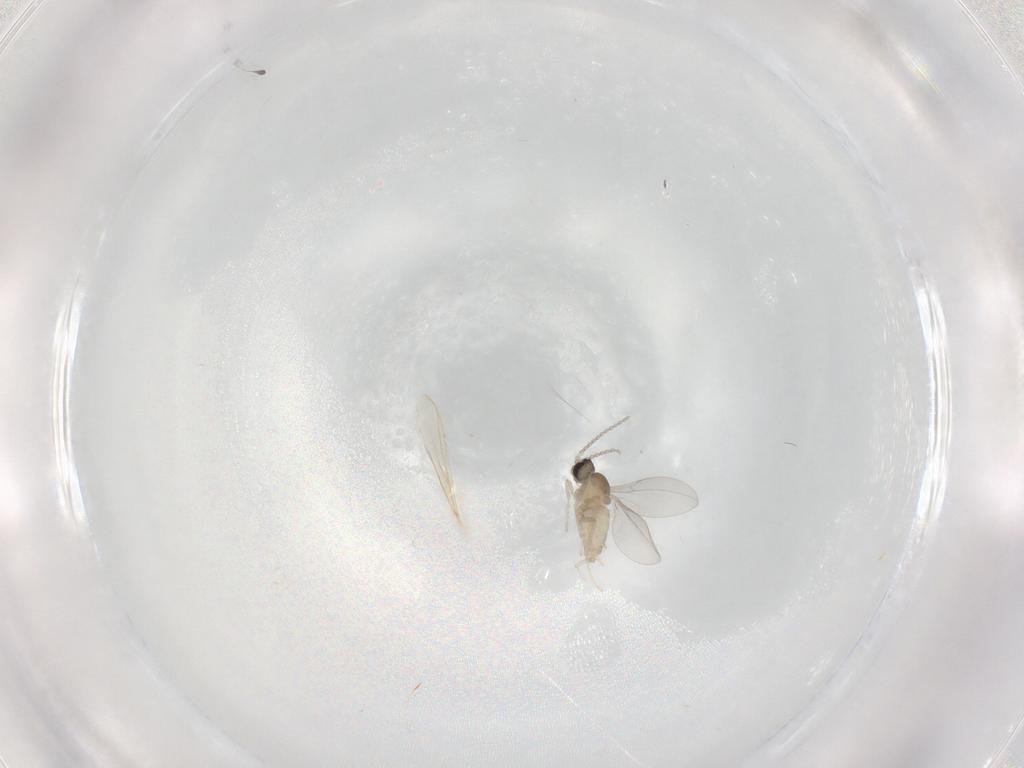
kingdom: Animalia
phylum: Arthropoda
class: Insecta
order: Diptera
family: Cecidomyiidae
